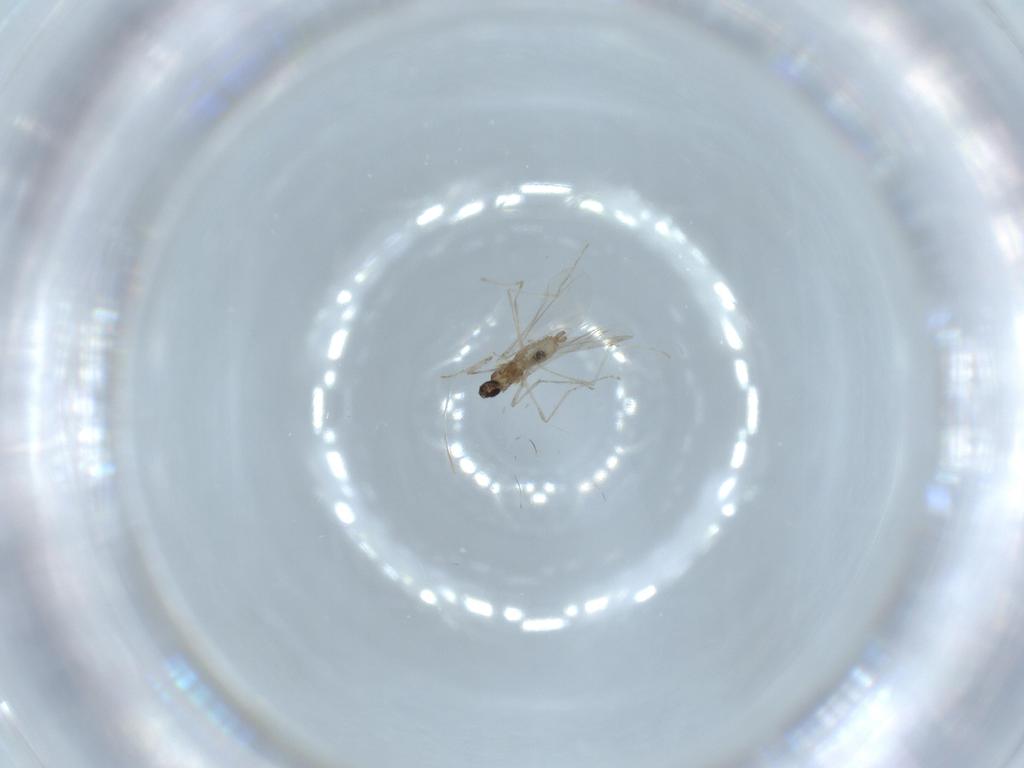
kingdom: Animalia
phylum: Arthropoda
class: Insecta
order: Diptera
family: Cecidomyiidae
